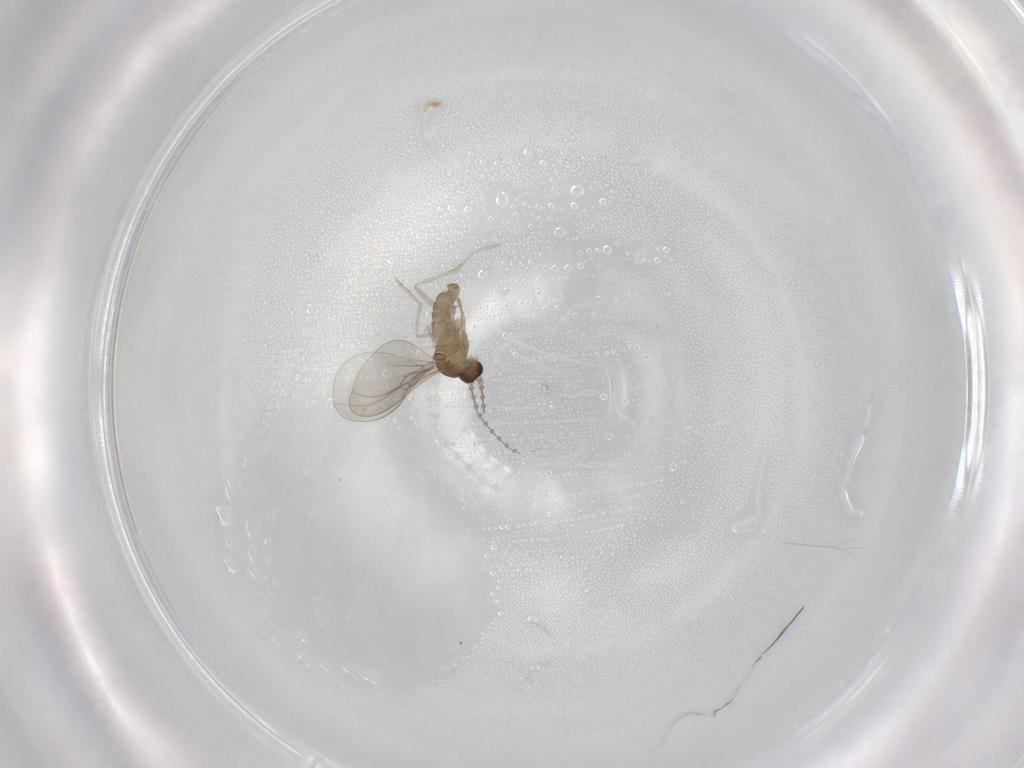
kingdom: Animalia
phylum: Arthropoda
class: Insecta
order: Diptera
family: Cecidomyiidae
